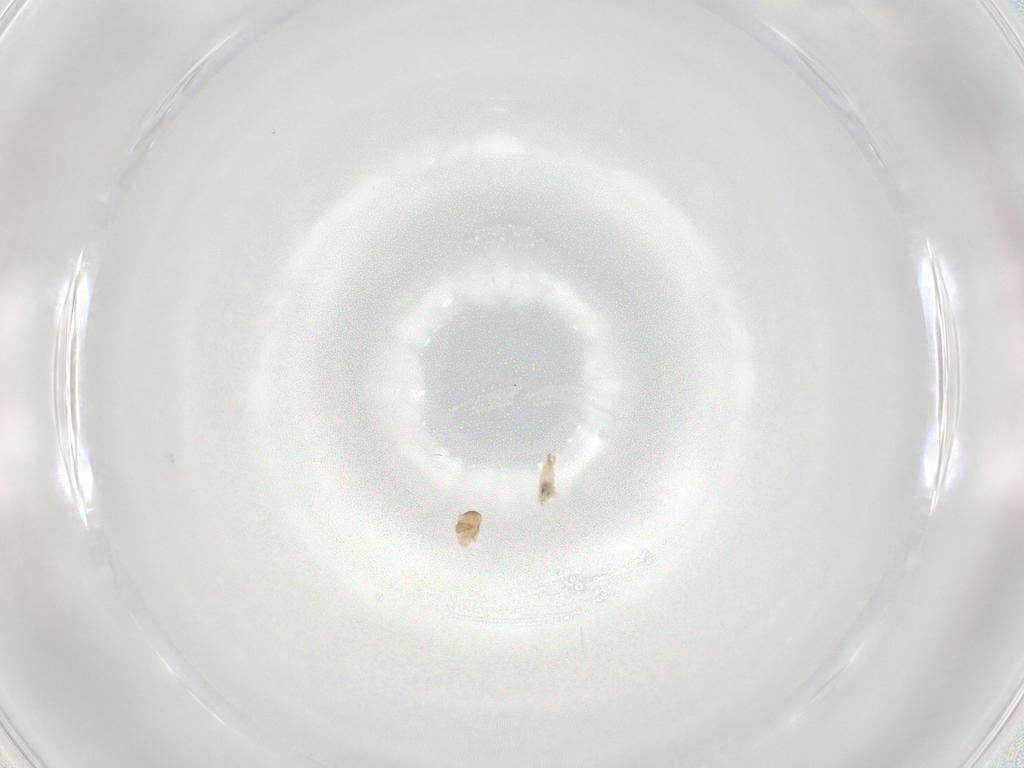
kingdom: Animalia
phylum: Arthropoda
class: Insecta
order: Diptera
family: Cecidomyiidae
